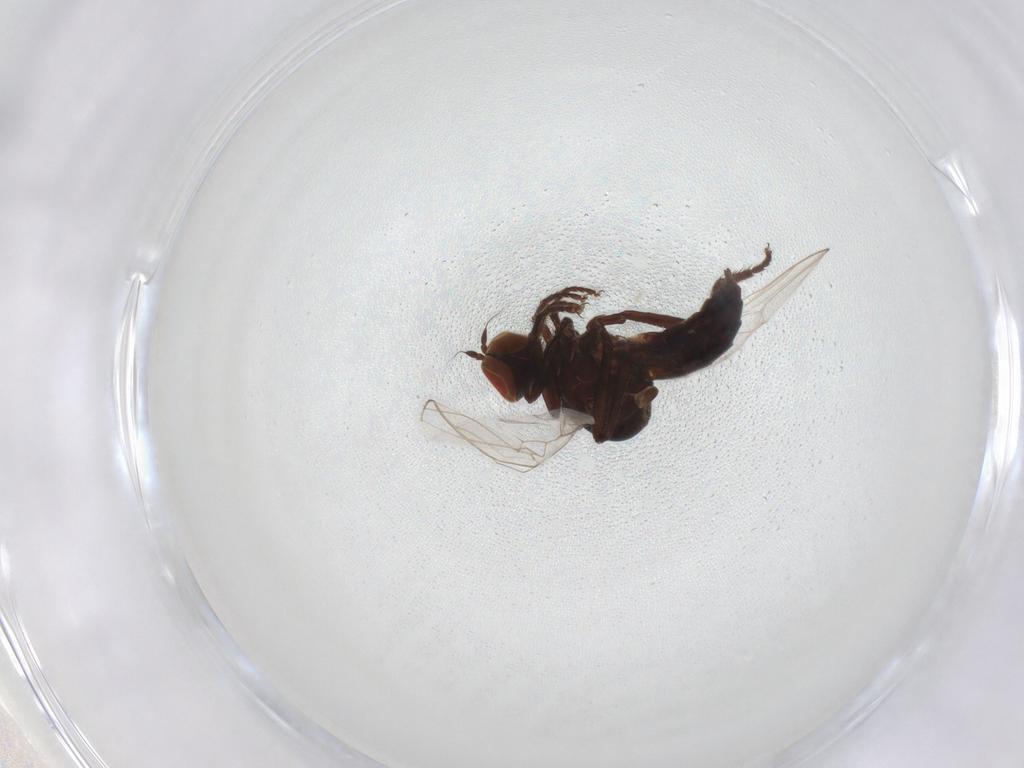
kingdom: Animalia
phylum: Arthropoda
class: Insecta
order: Diptera
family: Hybotidae
